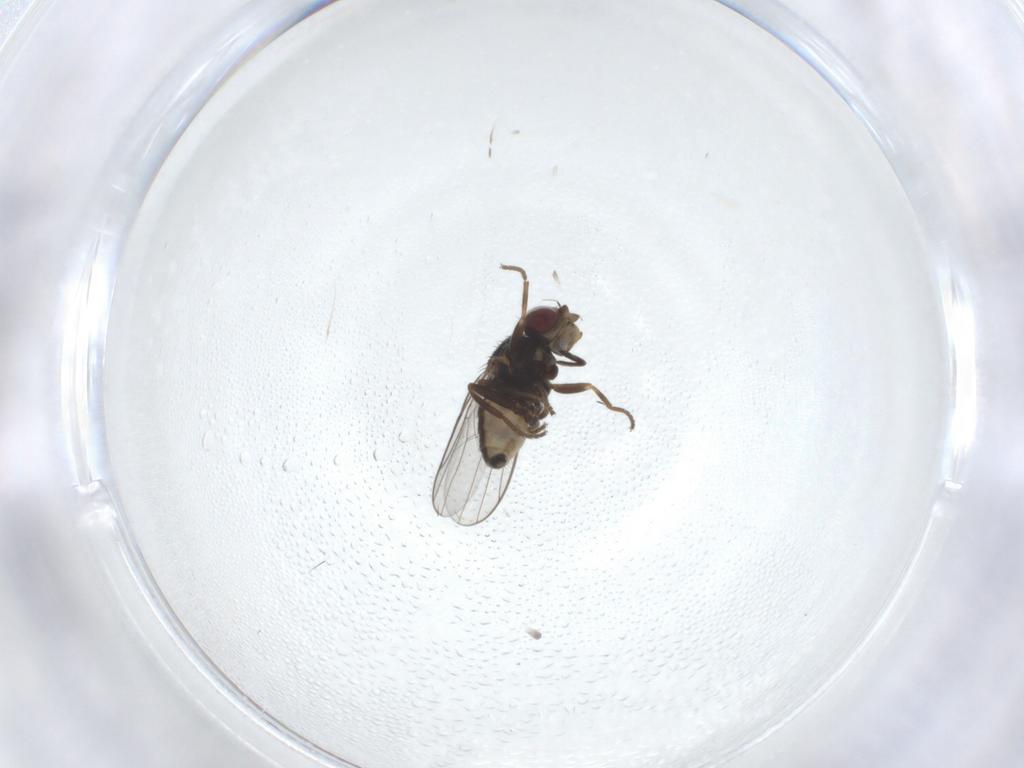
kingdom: Animalia
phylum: Arthropoda
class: Insecta
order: Diptera
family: Chloropidae
